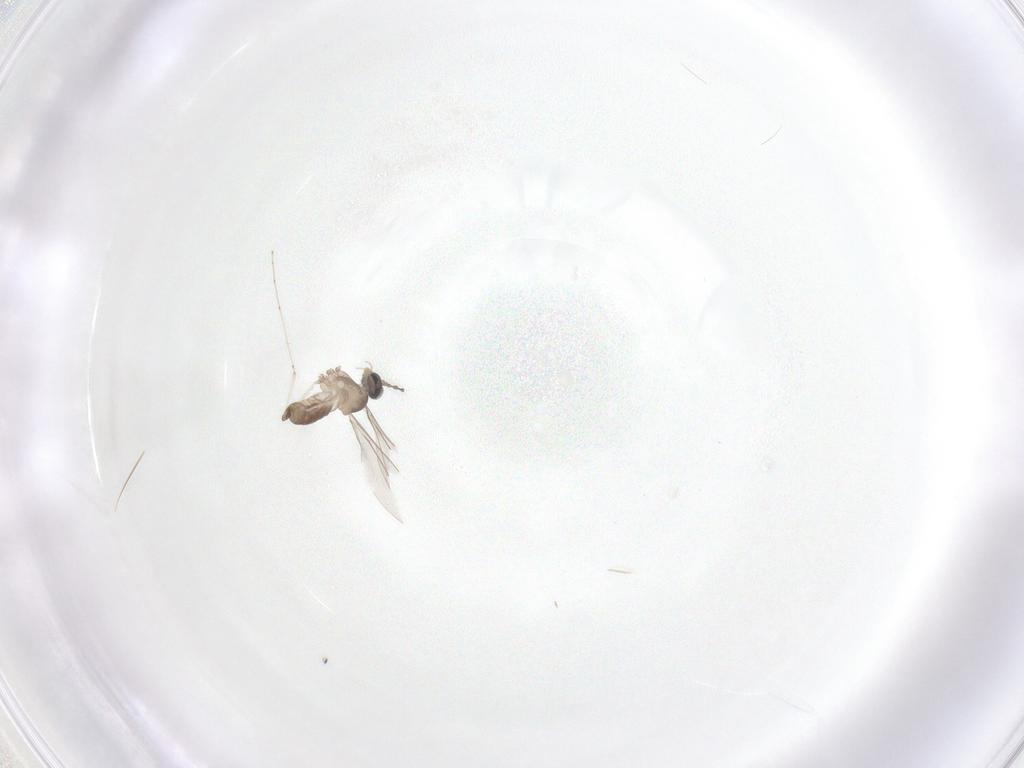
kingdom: Animalia
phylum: Arthropoda
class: Insecta
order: Diptera
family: Cecidomyiidae
